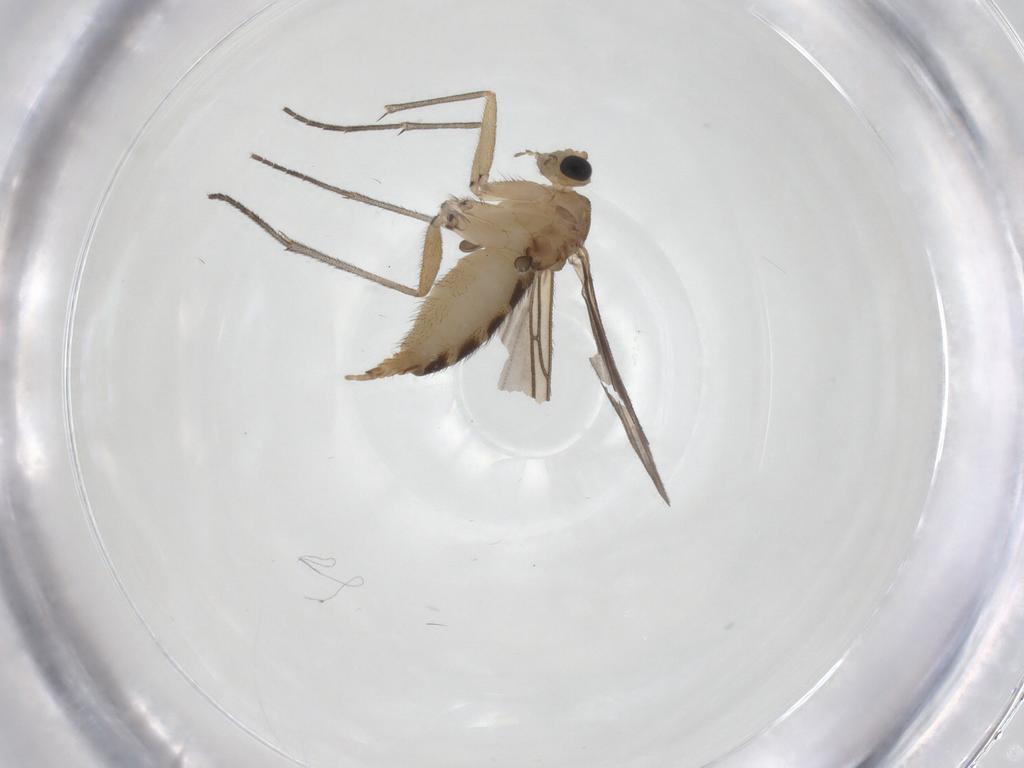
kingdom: Animalia
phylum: Arthropoda
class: Insecta
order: Diptera
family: Sciaridae
